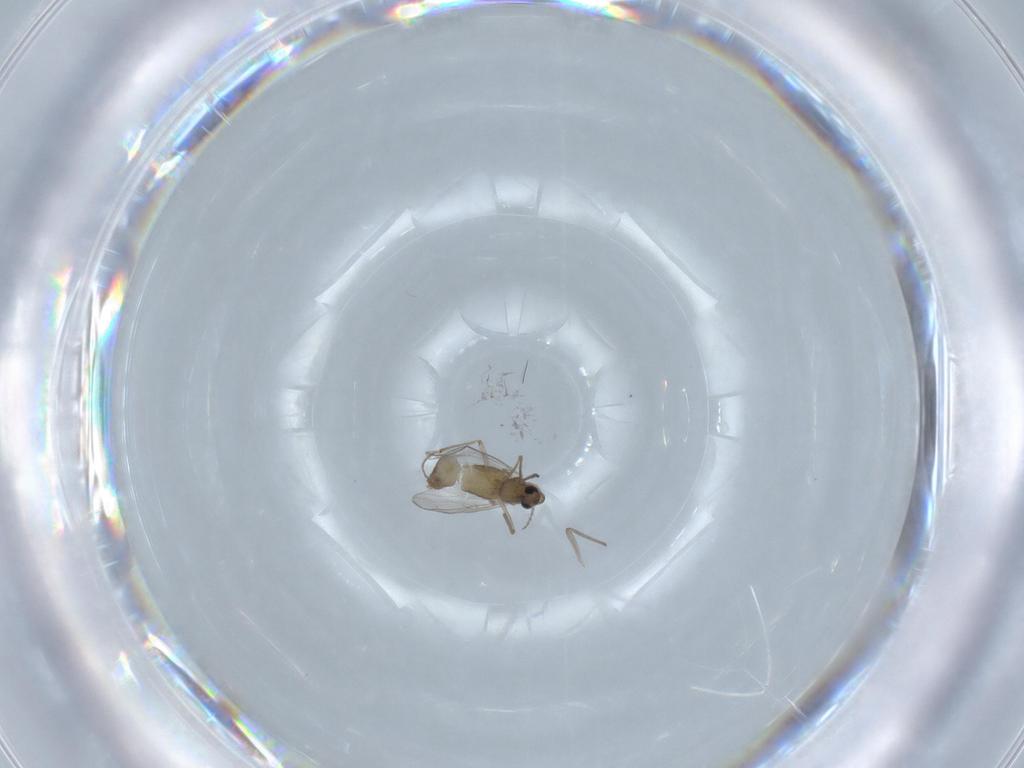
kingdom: Animalia
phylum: Arthropoda
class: Insecta
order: Diptera
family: Chironomidae
